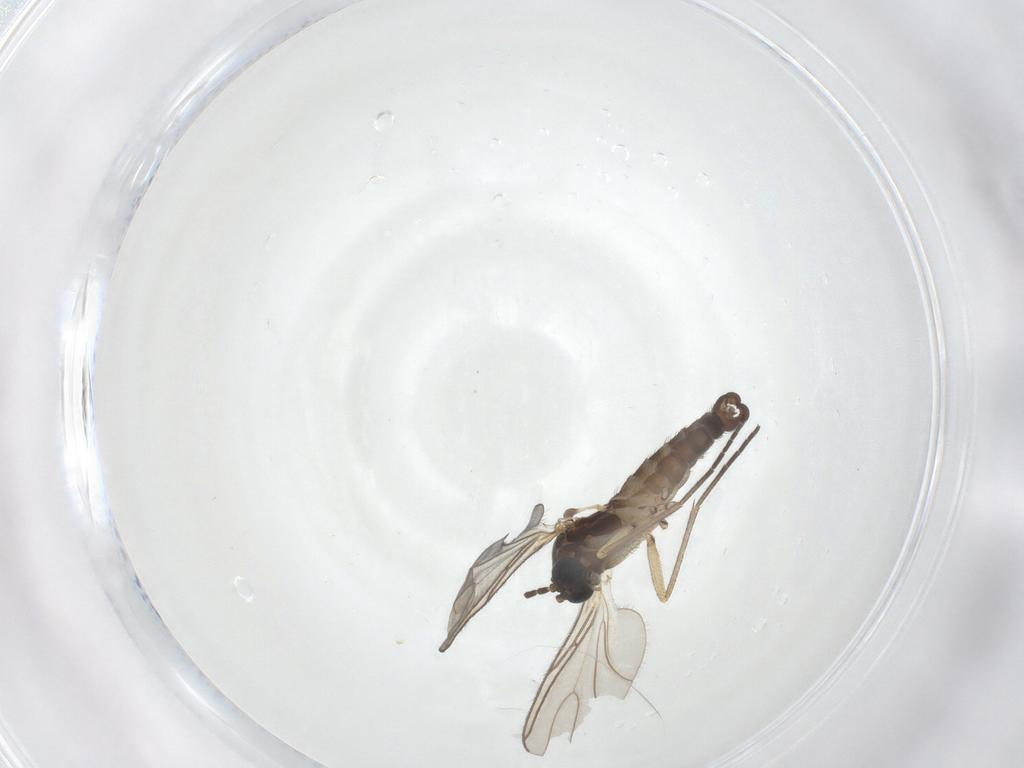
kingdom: Animalia
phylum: Arthropoda
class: Insecta
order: Diptera
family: Sciaridae
